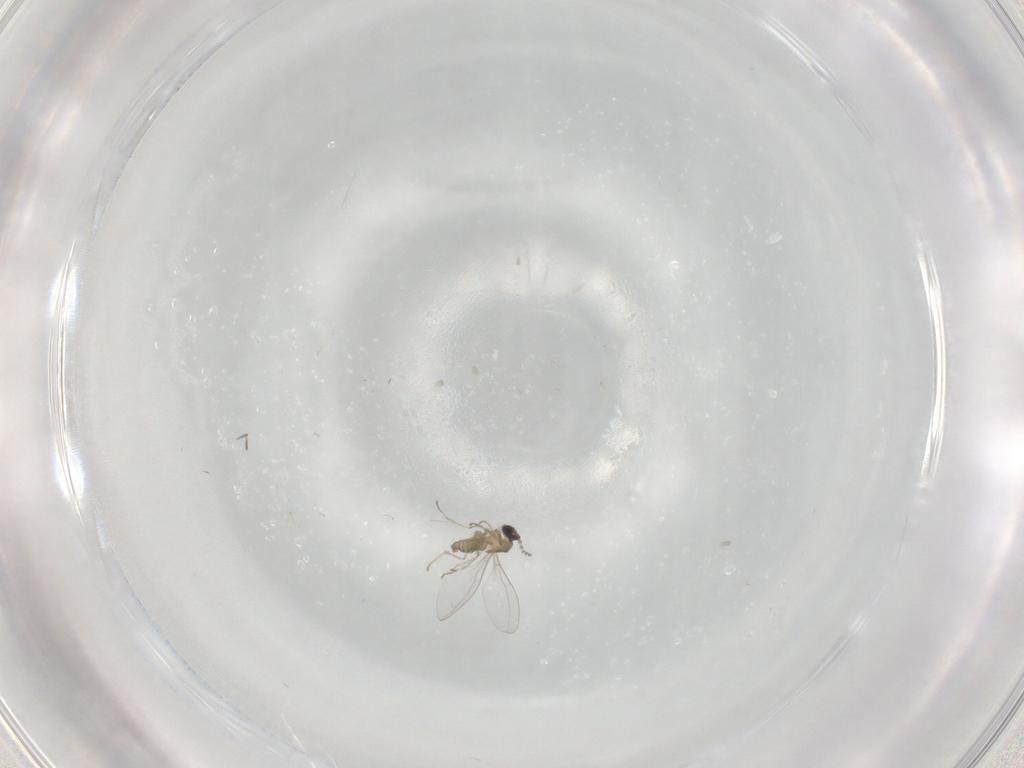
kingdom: Animalia
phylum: Arthropoda
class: Insecta
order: Diptera
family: Cecidomyiidae
